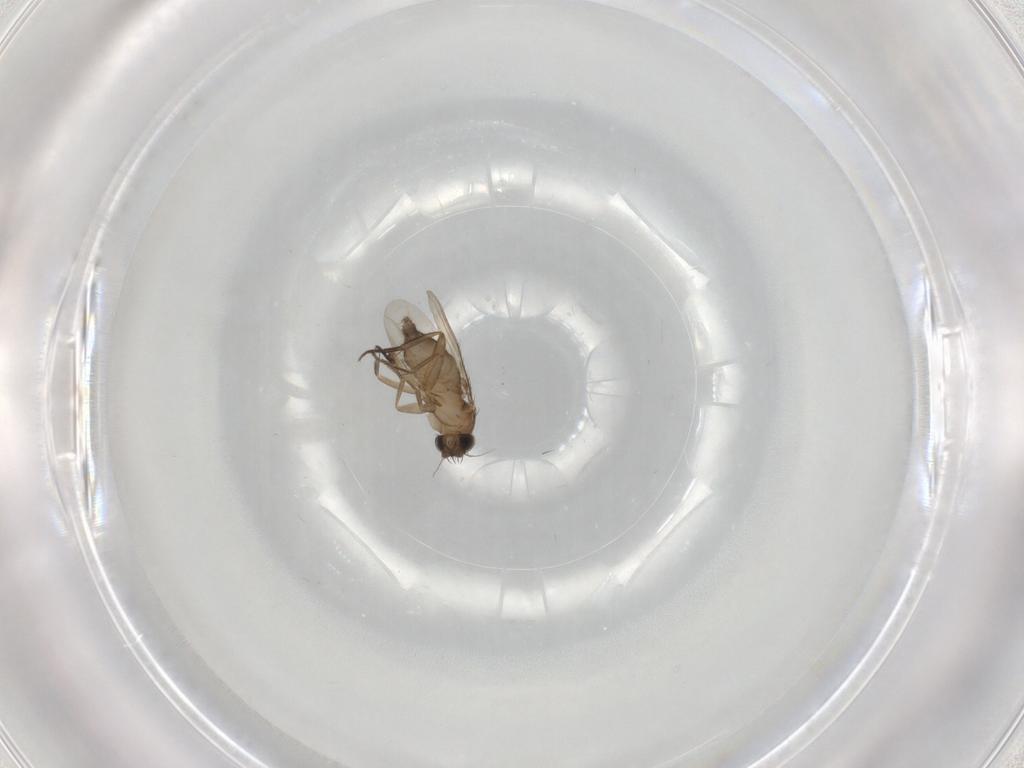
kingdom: Animalia
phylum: Arthropoda
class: Insecta
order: Diptera
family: Phoridae
